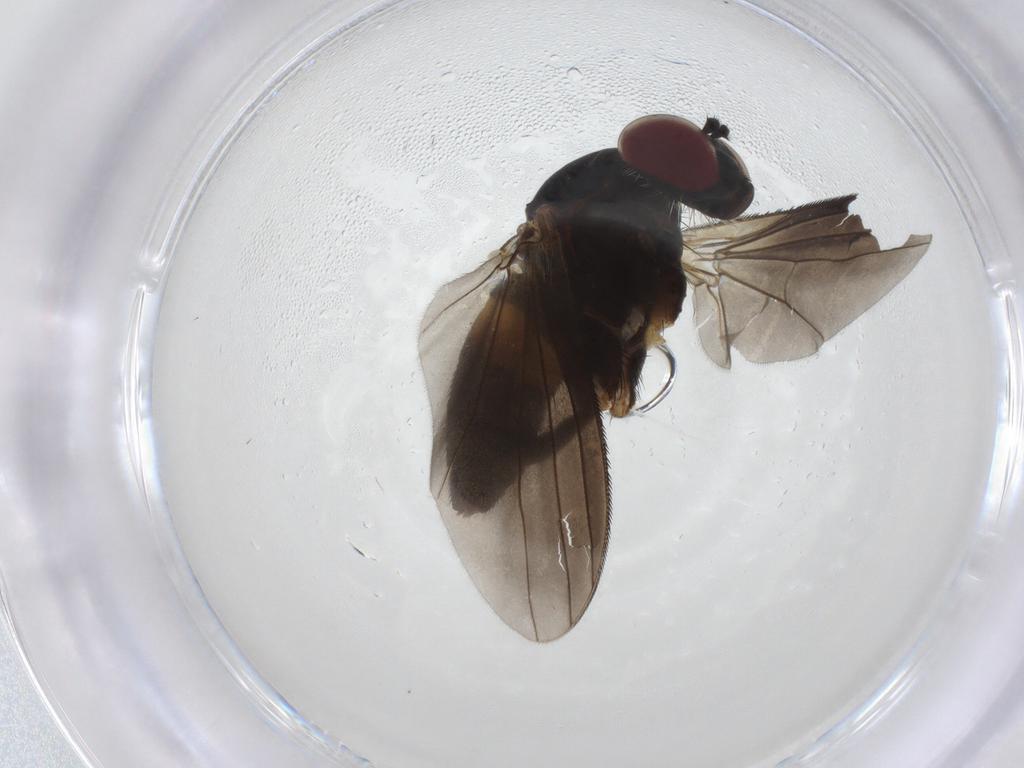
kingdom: Animalia
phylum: Arthropoda
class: Insecta
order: Diptera
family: Dolichopodidae
